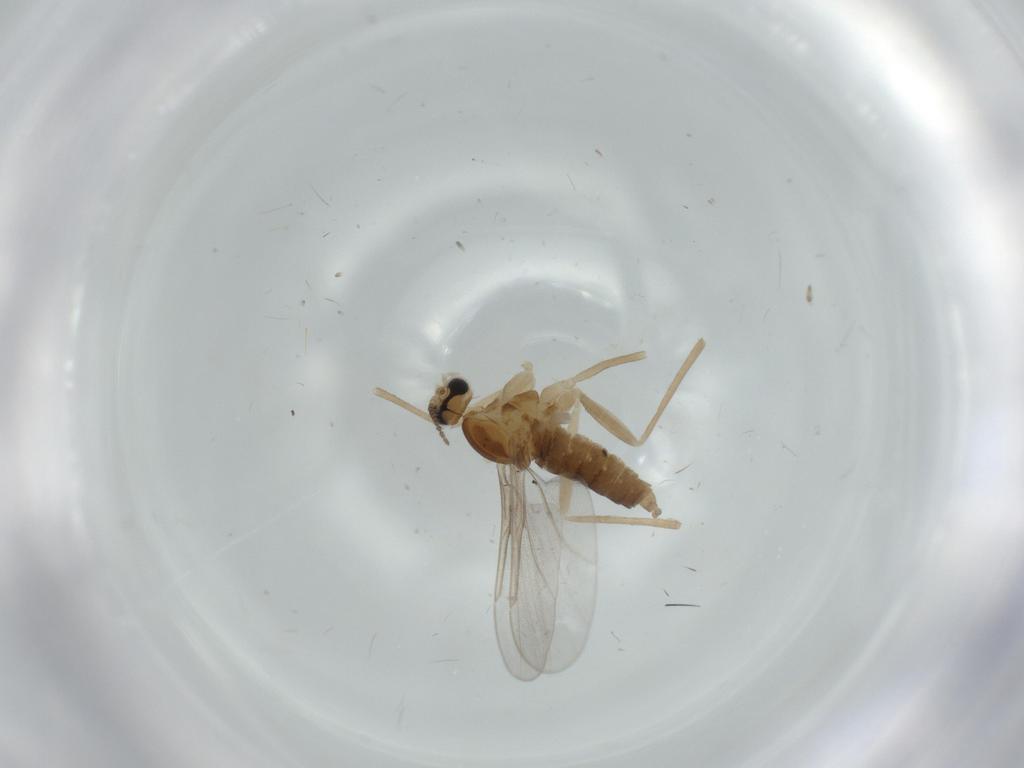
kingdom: Animalia
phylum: Arthropoda
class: Insecta
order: Diptera
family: Cecidomyiidae
